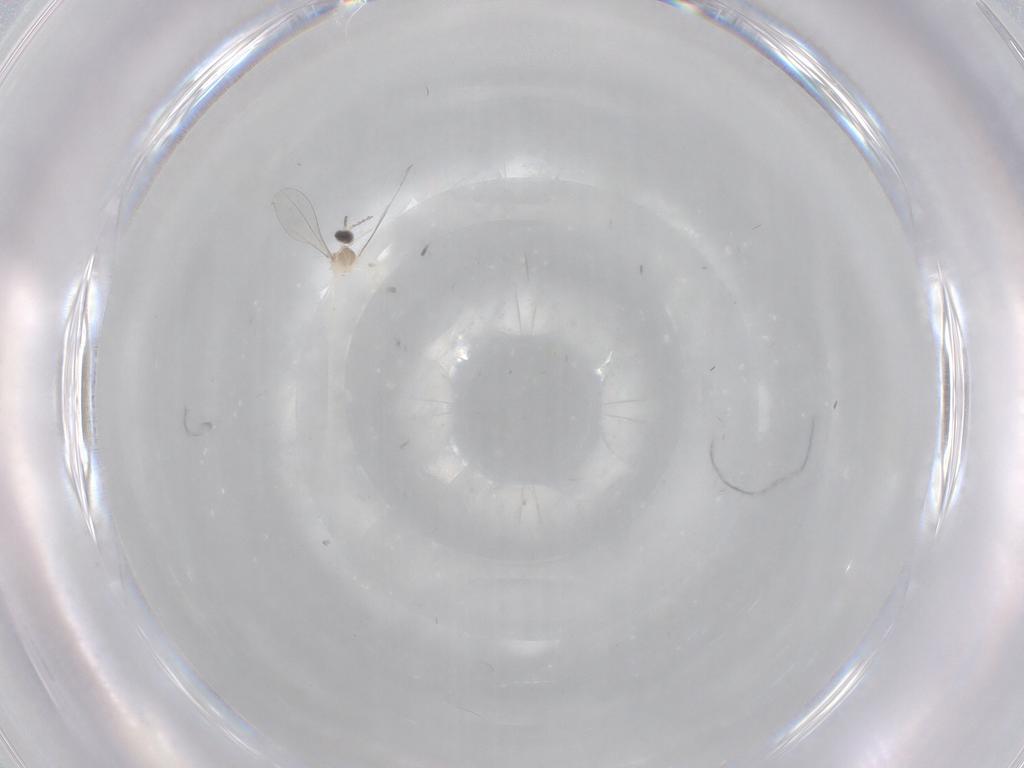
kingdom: Animalia
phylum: Arthropoda
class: Insecta
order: Diptera
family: Cecidomyiidae
